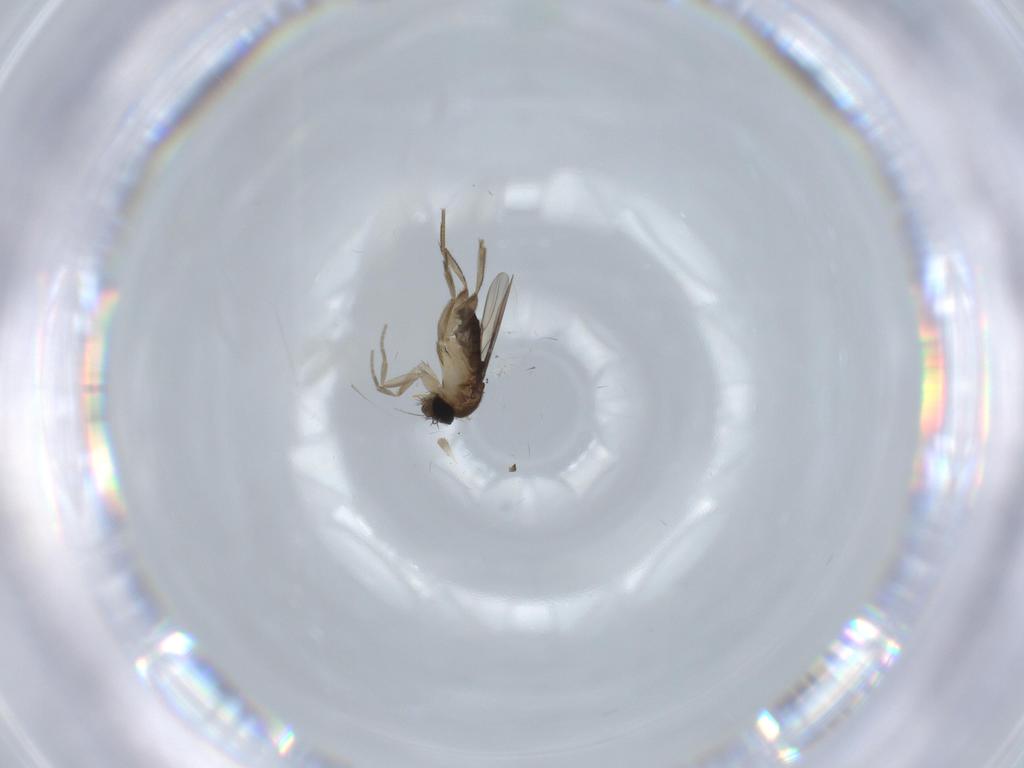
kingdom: Animalia
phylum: Arthropoda
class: Insecta
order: Diptera
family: Phoridae
